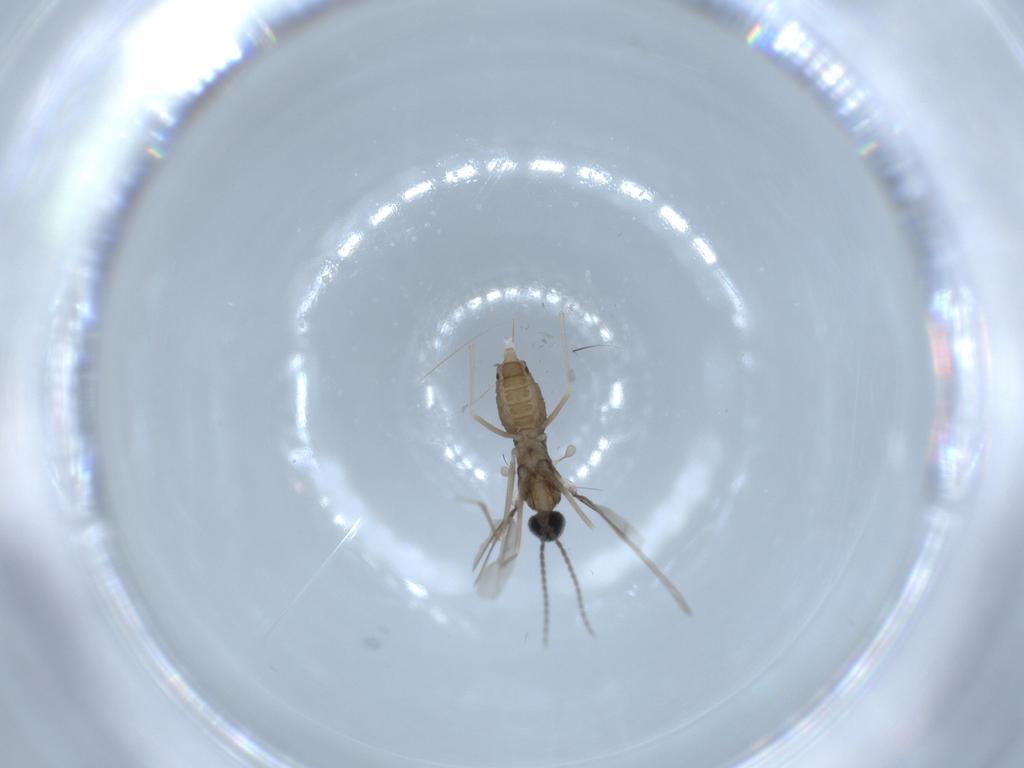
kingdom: Animalia
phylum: Arthropoda
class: Insecta
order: Diptera
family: Cecidomyiidae
